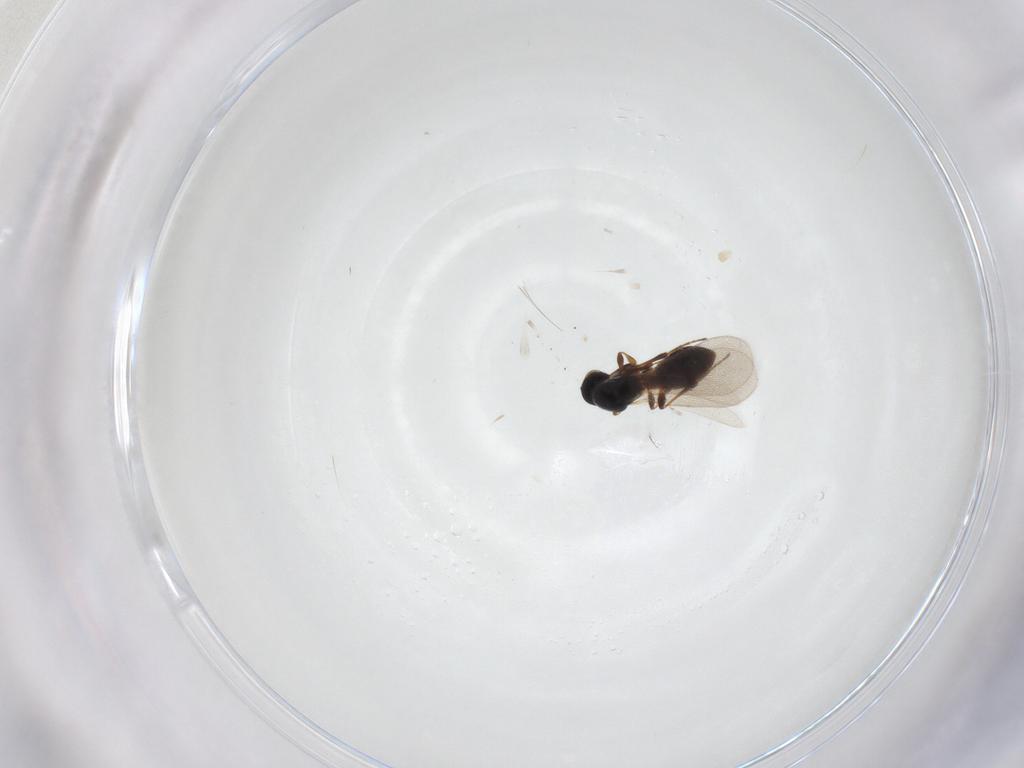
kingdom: Animalia
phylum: Arthropoda
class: Insecta
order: Hymenoptera
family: Platygastridae
